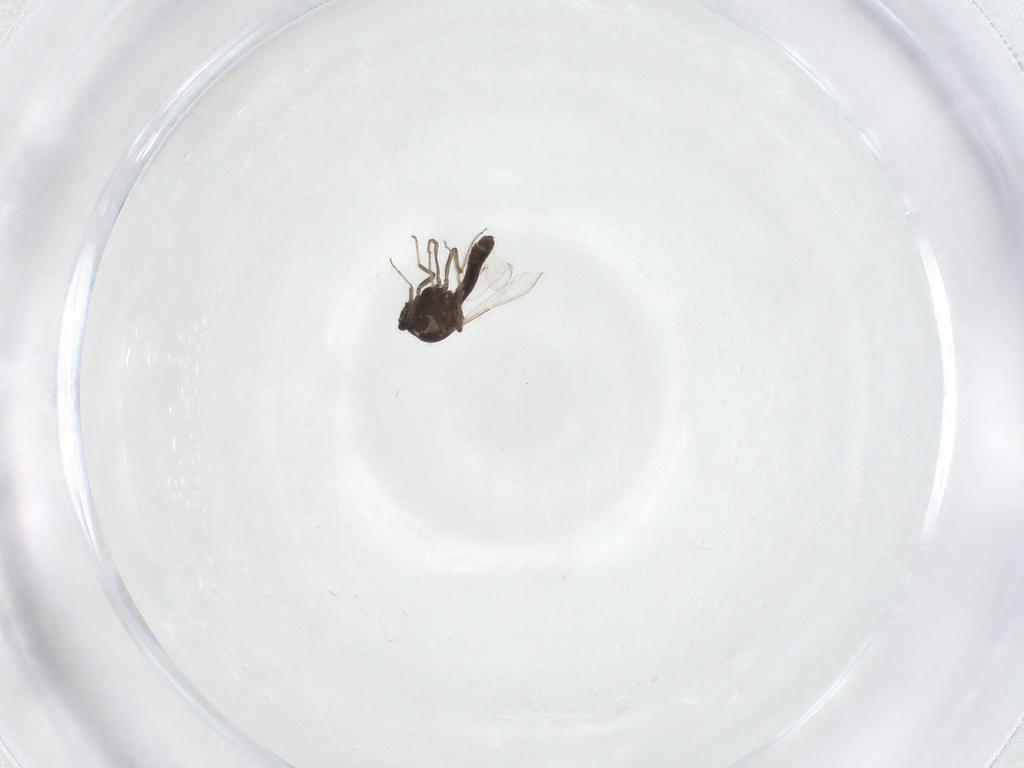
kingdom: Animalia
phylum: Arthropoda
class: Insecta
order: Diptera
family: Ceratopogonidae
